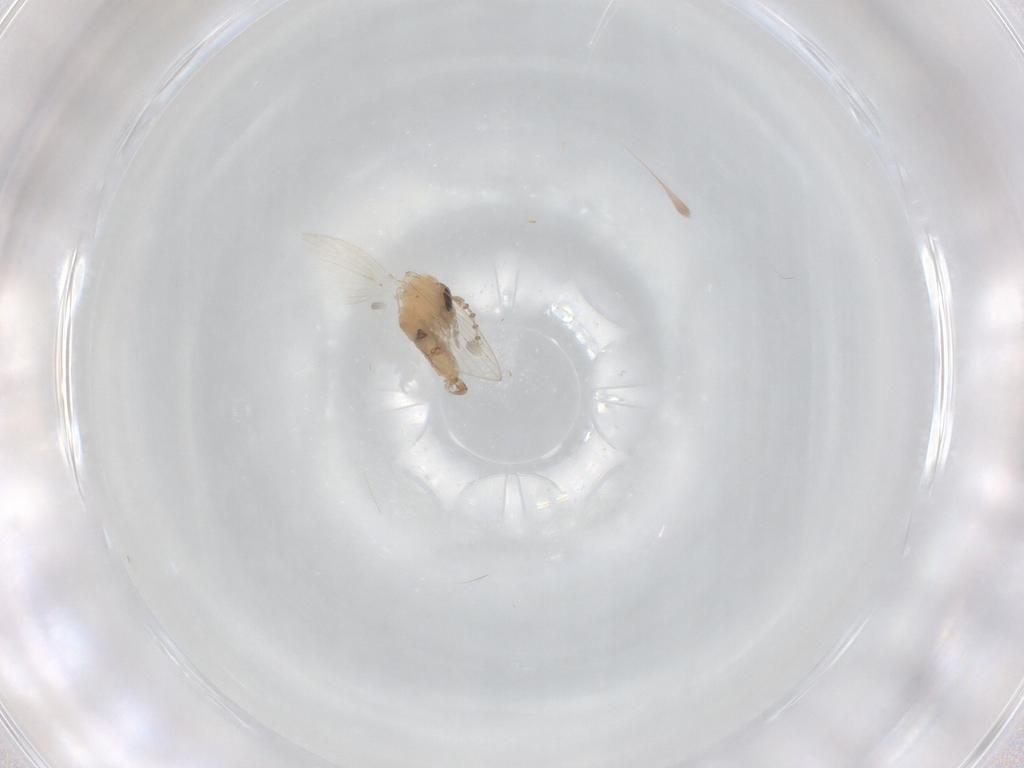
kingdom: Animalia
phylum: Arthropoda
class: Insecta
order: Diptera
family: Psychodidae
